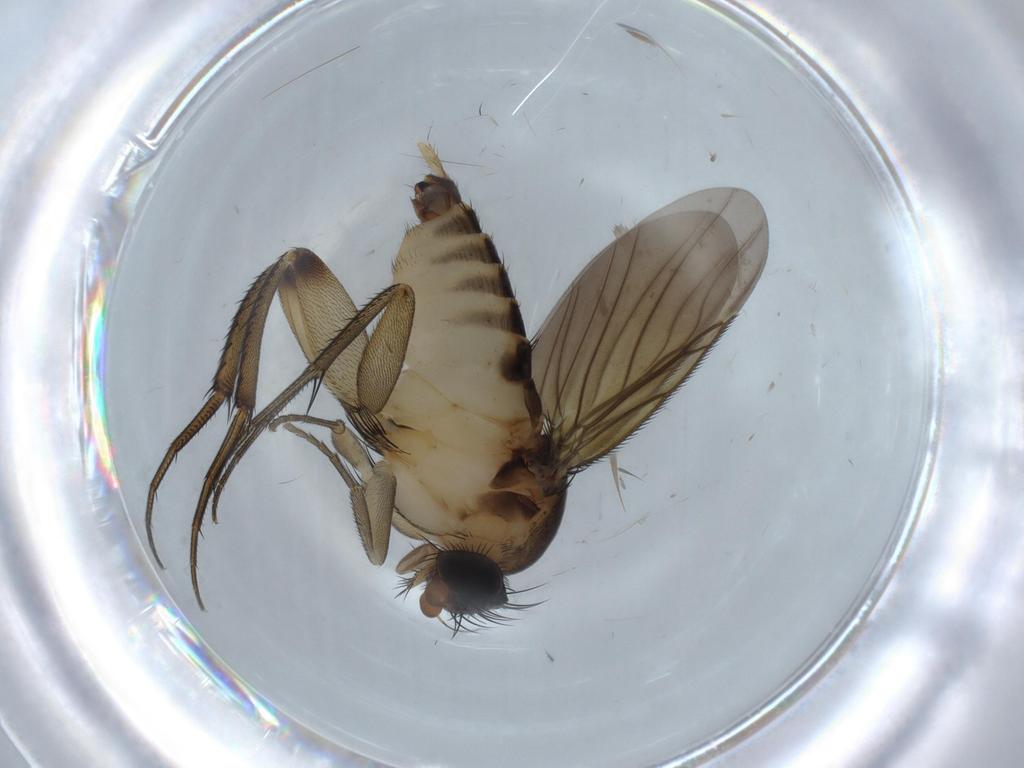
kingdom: Animalia
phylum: Arthropoda
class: Insecta
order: Diptera
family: Phoridae
